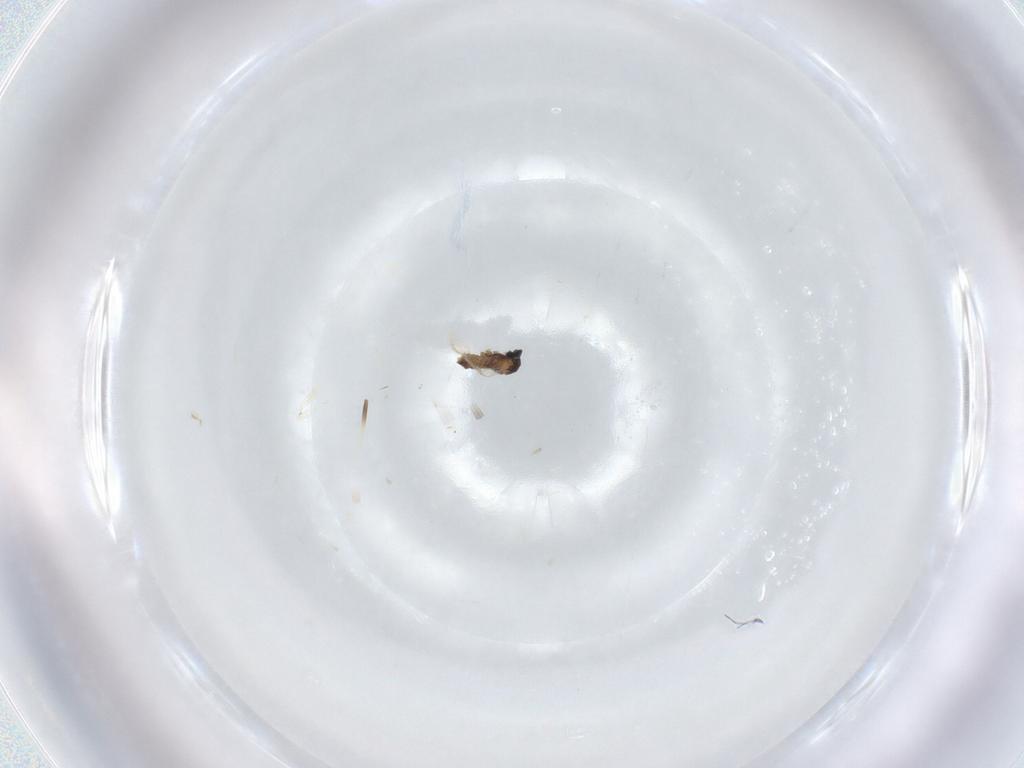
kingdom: Animalia
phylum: Arthropoda
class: Insecta
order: Diptera
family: Cecidomyiidae
